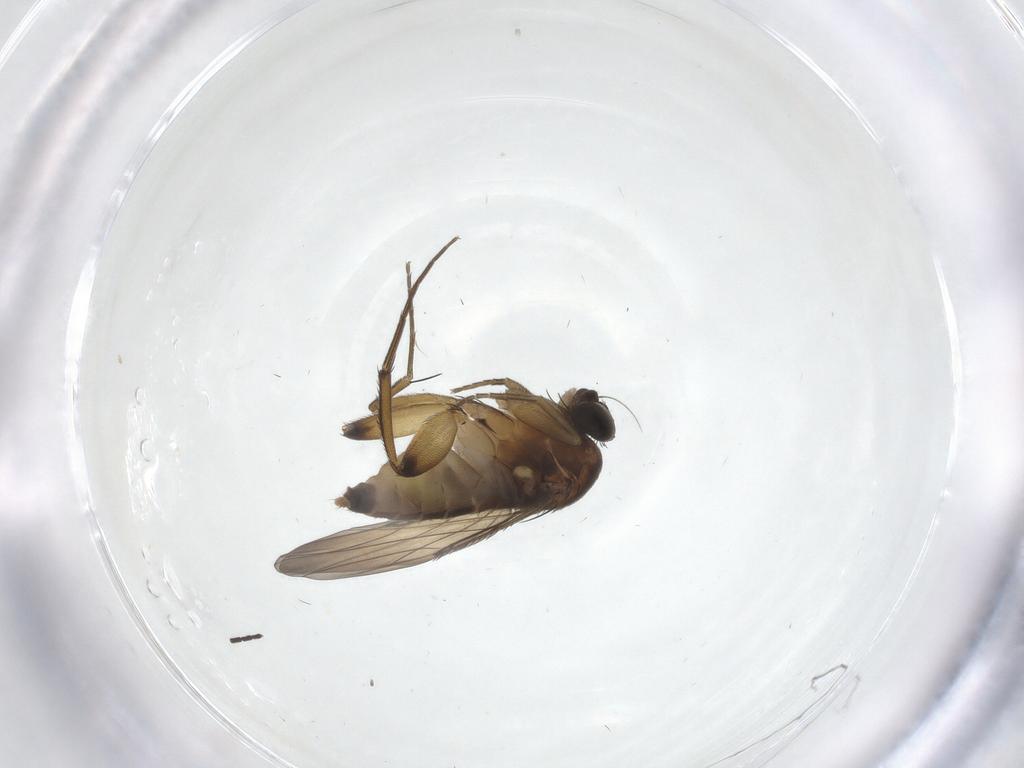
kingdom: Animalia
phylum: Arthropoda
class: Insecta
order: Diptera
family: Phoridae
